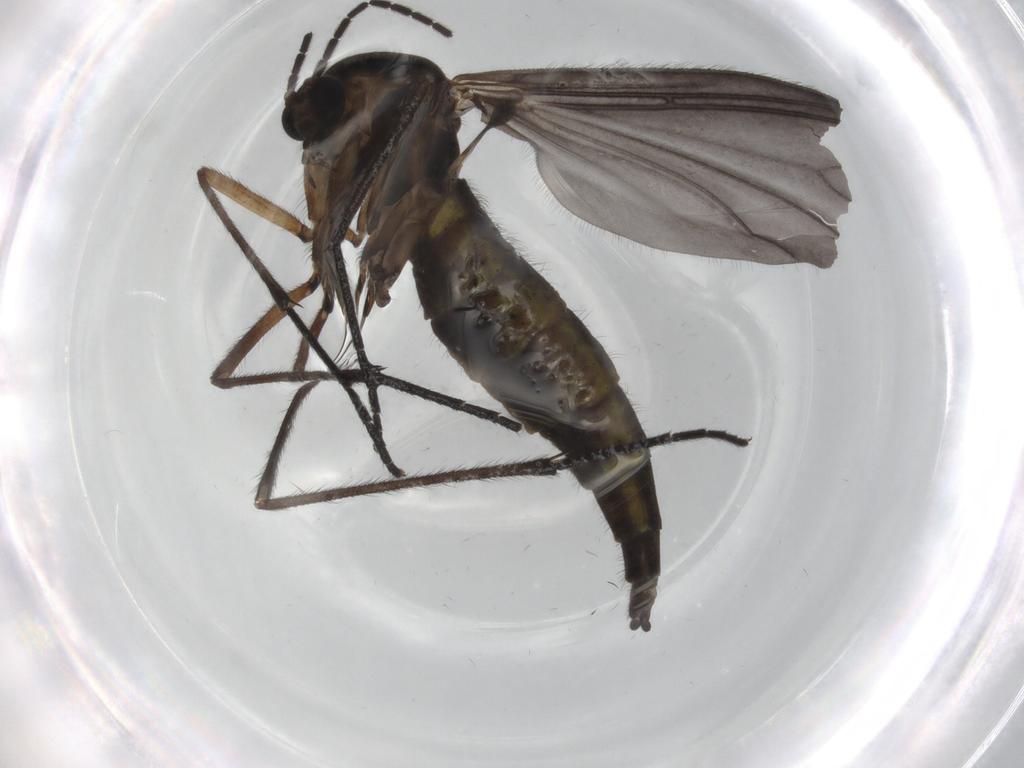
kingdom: Animalia
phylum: Arthropoda
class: Insecta
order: Diptera
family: Sciaridae
